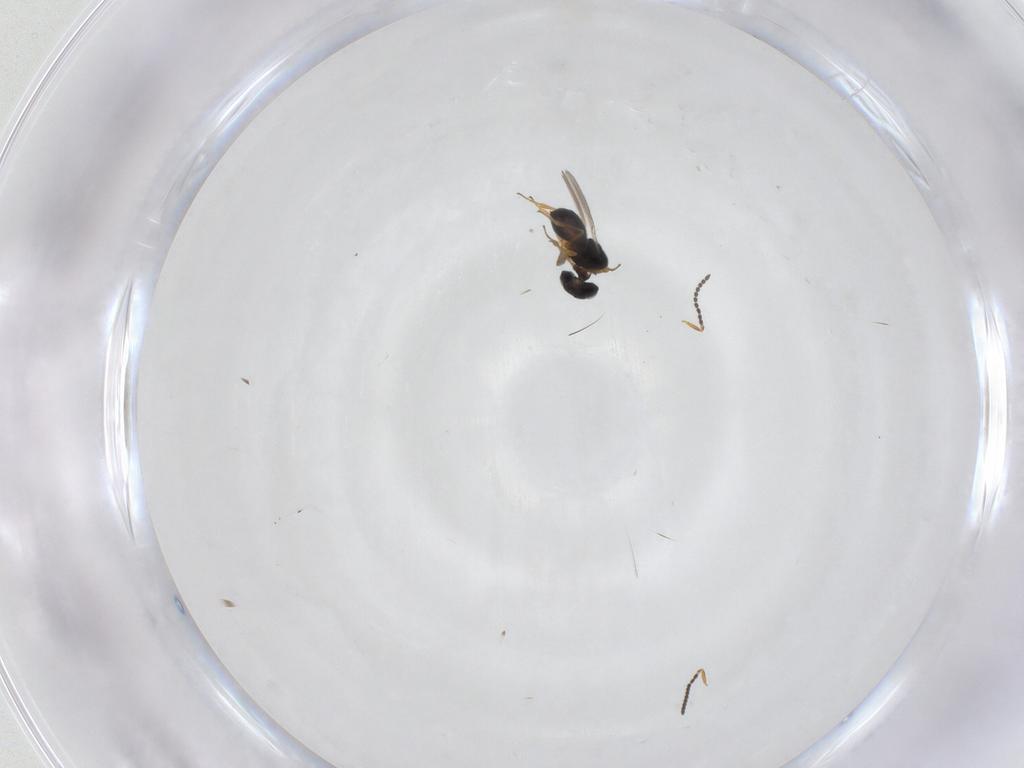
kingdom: Animalia
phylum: Arthropoda
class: Insecta
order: Hymenoptera
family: Scelionidae
